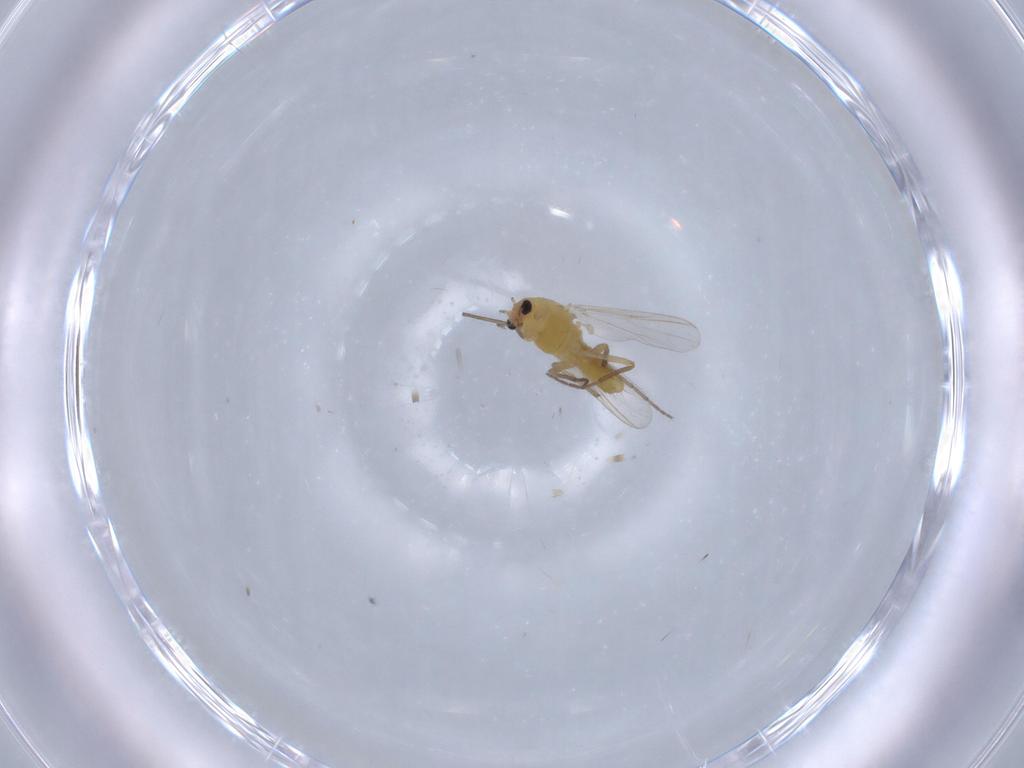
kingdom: Animalia
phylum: Arthropoda
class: Insecta
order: Diptera
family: Chironomidae
